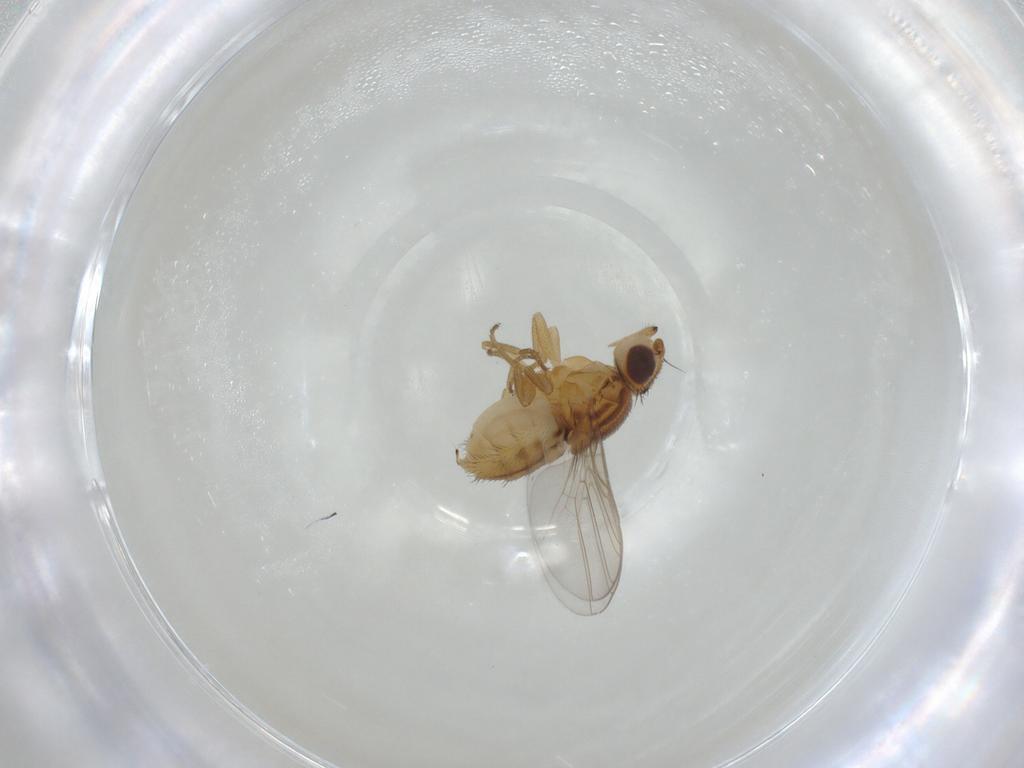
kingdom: Animalia
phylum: Arthropoda
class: Insecta
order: Diptera
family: Chloropidae
